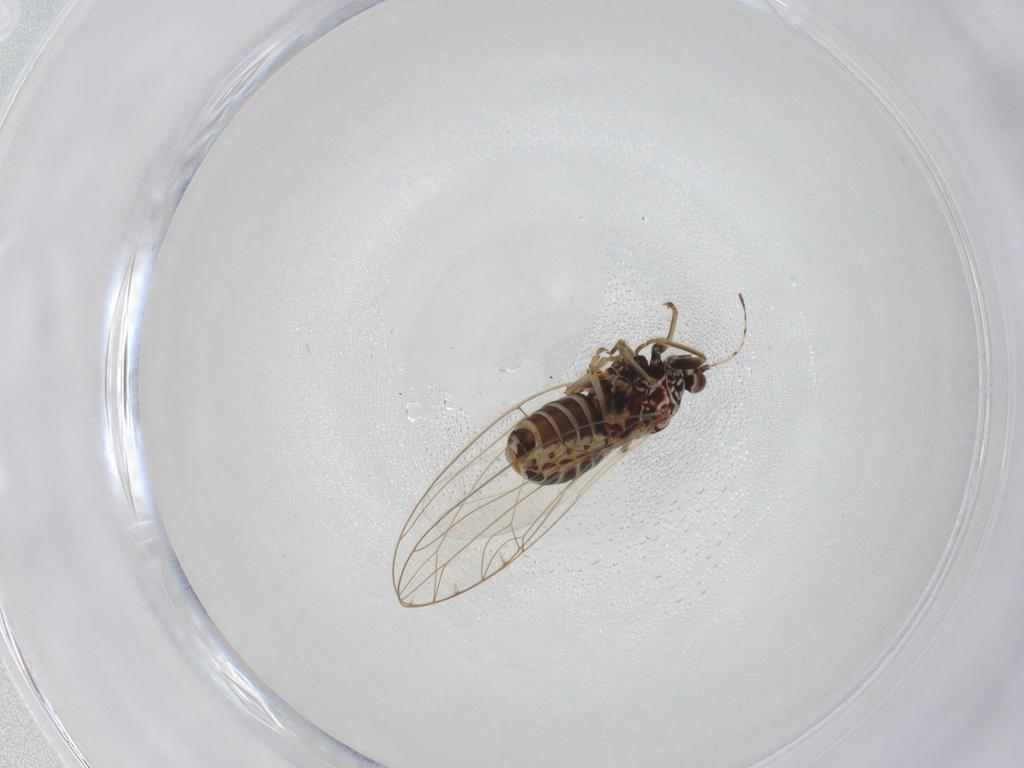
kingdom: Animalia
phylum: Arthropoda
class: Insecta
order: Hemiptera
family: Triozidae
